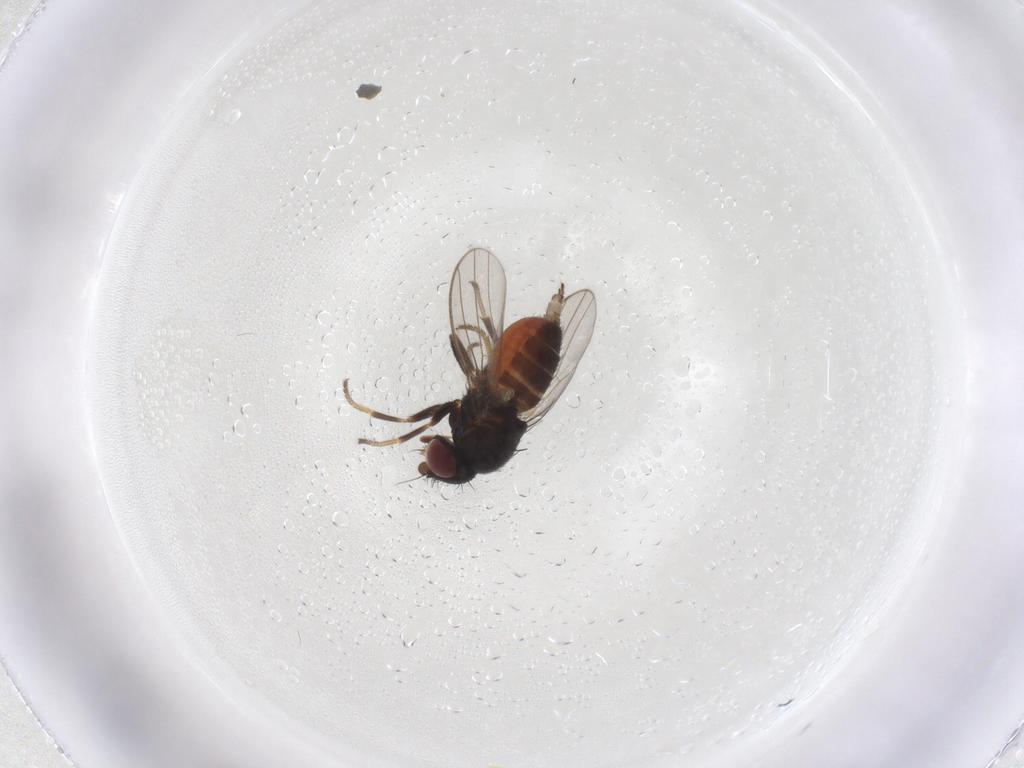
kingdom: Animalia
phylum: Arthropoda
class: Insecta
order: Diptera
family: Milichiidae
